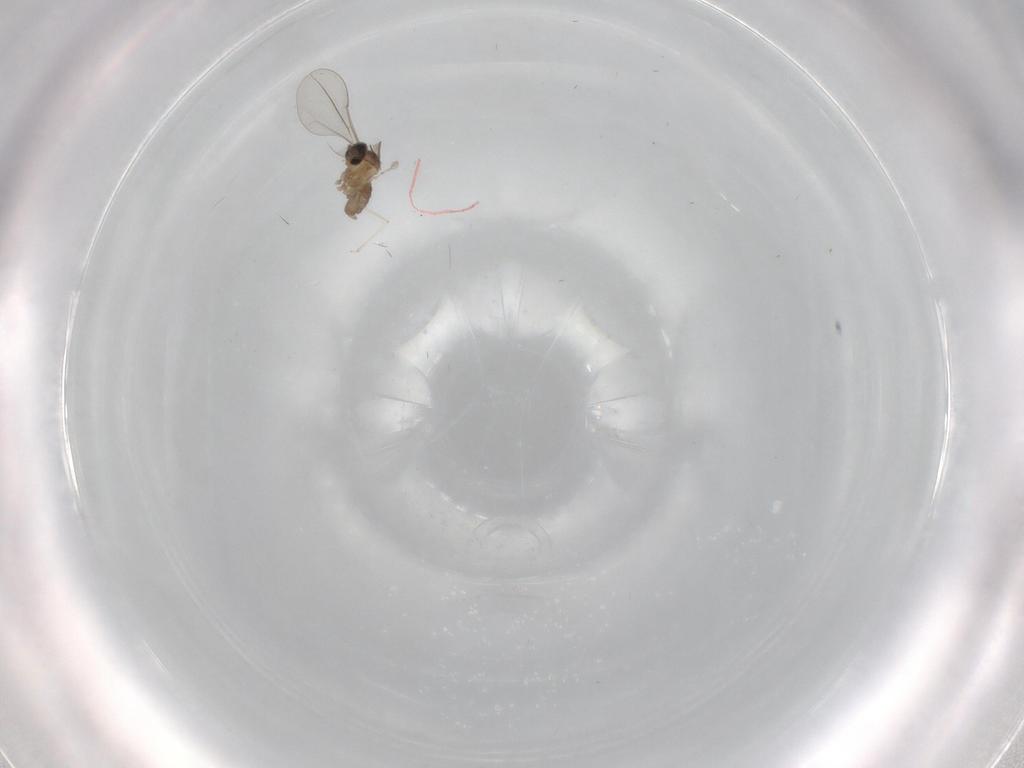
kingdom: Animalia
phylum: Arthropoda
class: Insecta
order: Diptera
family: Cecidomyiidae
